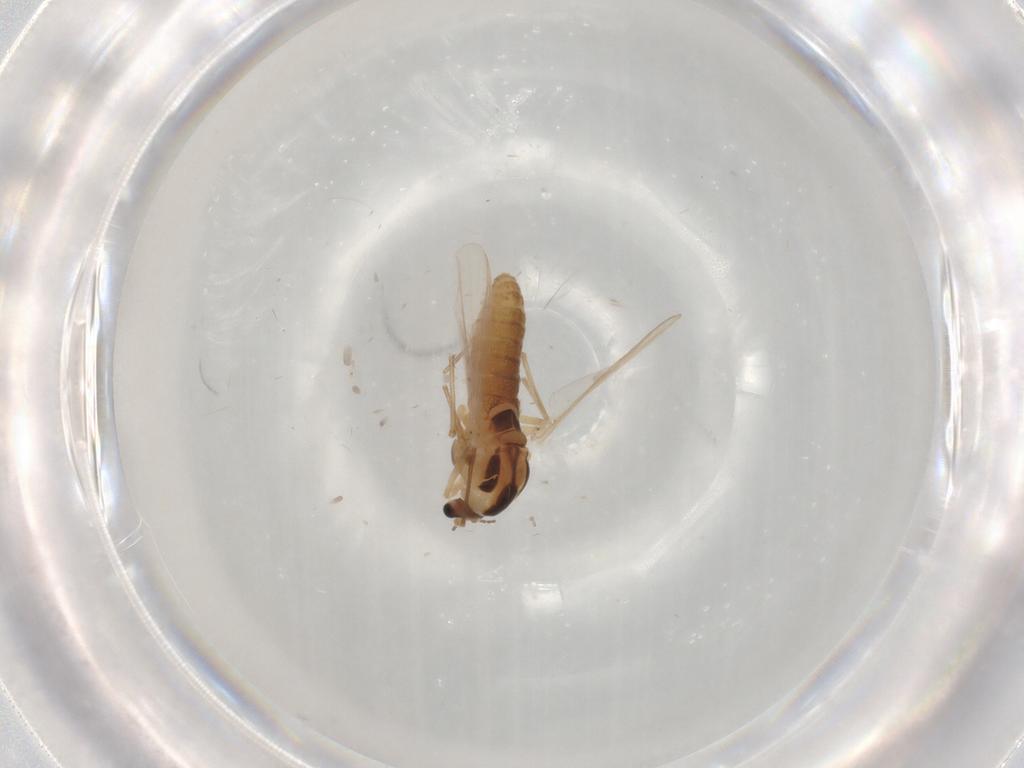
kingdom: Animalia
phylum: Arthropoda
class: Insecta
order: Diptera
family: Chironomidae
